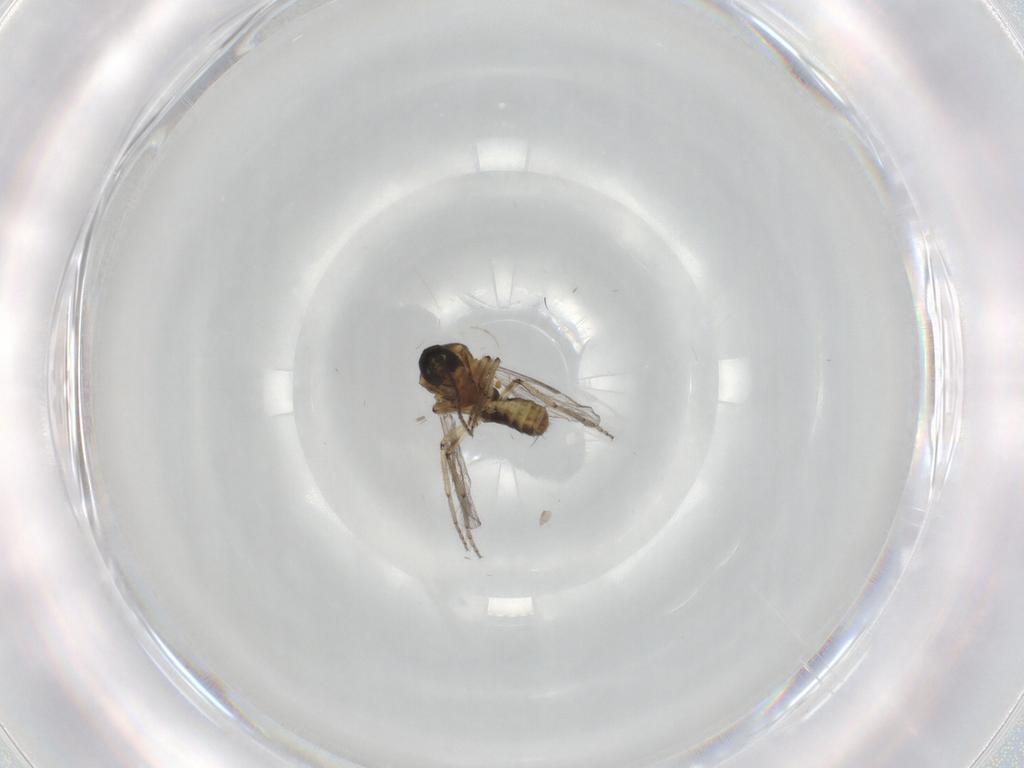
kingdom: Animalia
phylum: Arthropoda
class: Insecta
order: Diptera
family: Ceratopogonidae
